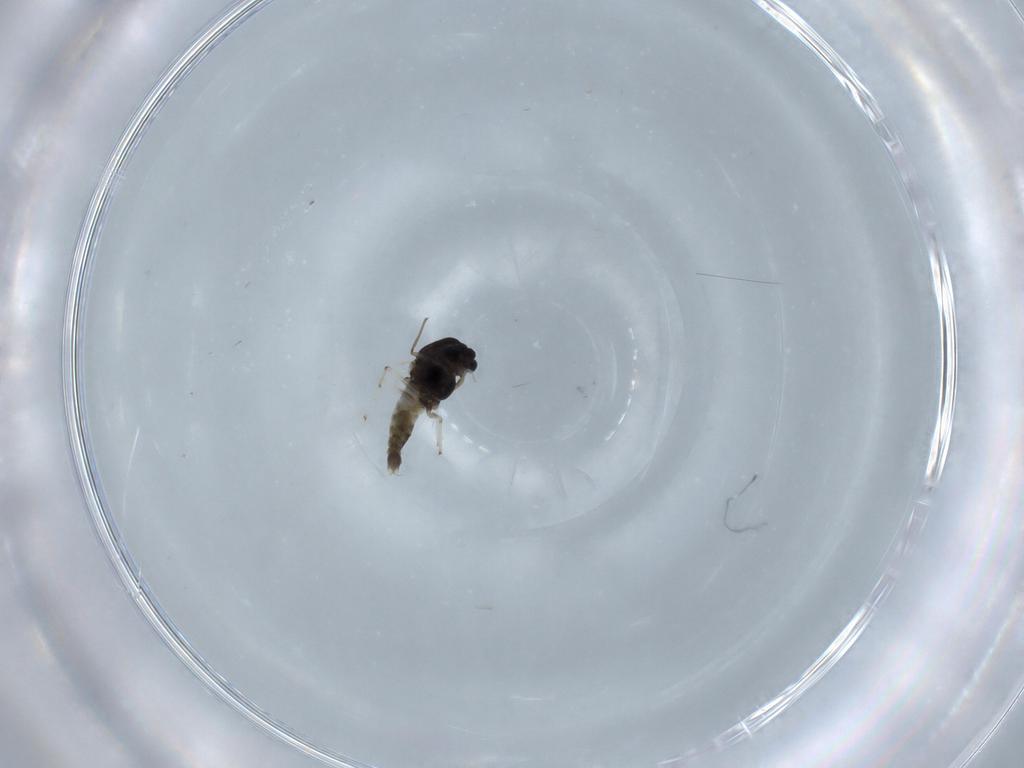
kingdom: Animalia
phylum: Arthropoda
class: Insecta
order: Diptera
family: Chironomidae
